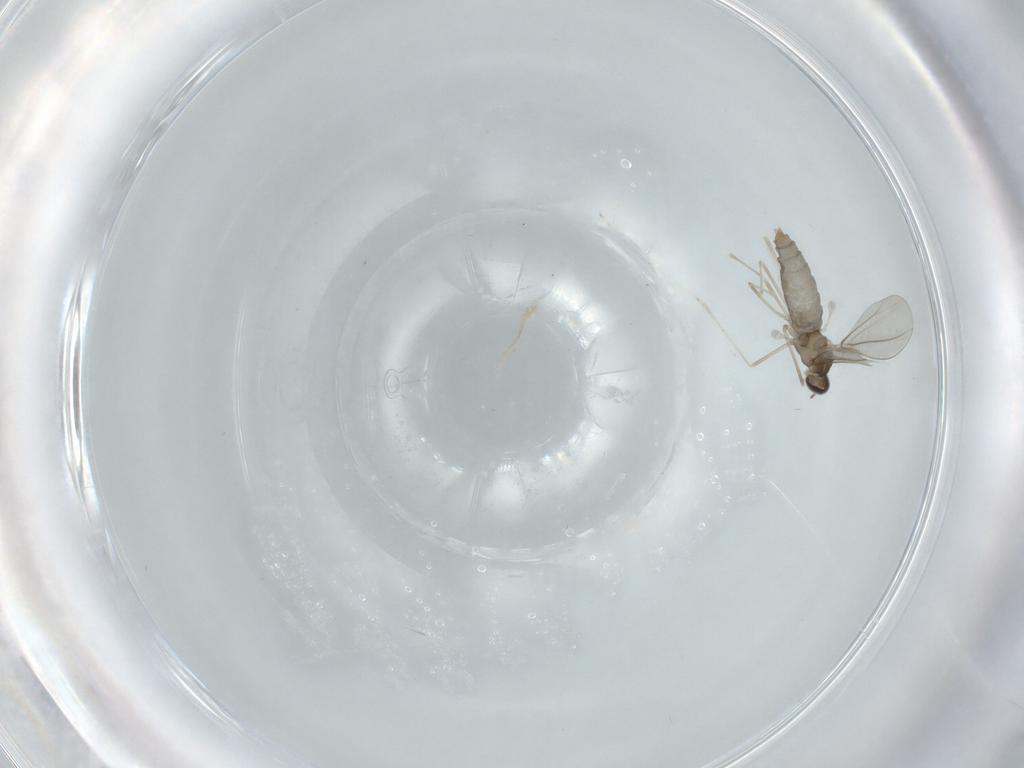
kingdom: Animalia
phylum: Arthropoda
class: Insecta
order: Diptera
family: Cecidomyiidae
